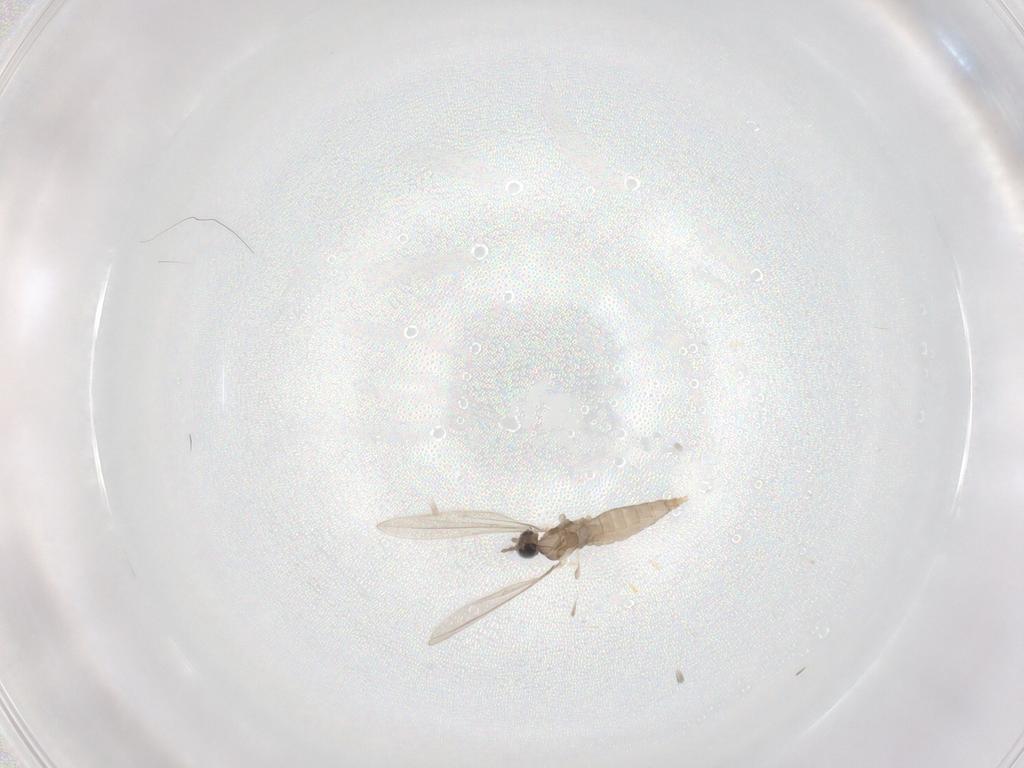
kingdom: Animalia
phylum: Arthropoda
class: Insecta
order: Diptera
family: Cecidomyiidae
